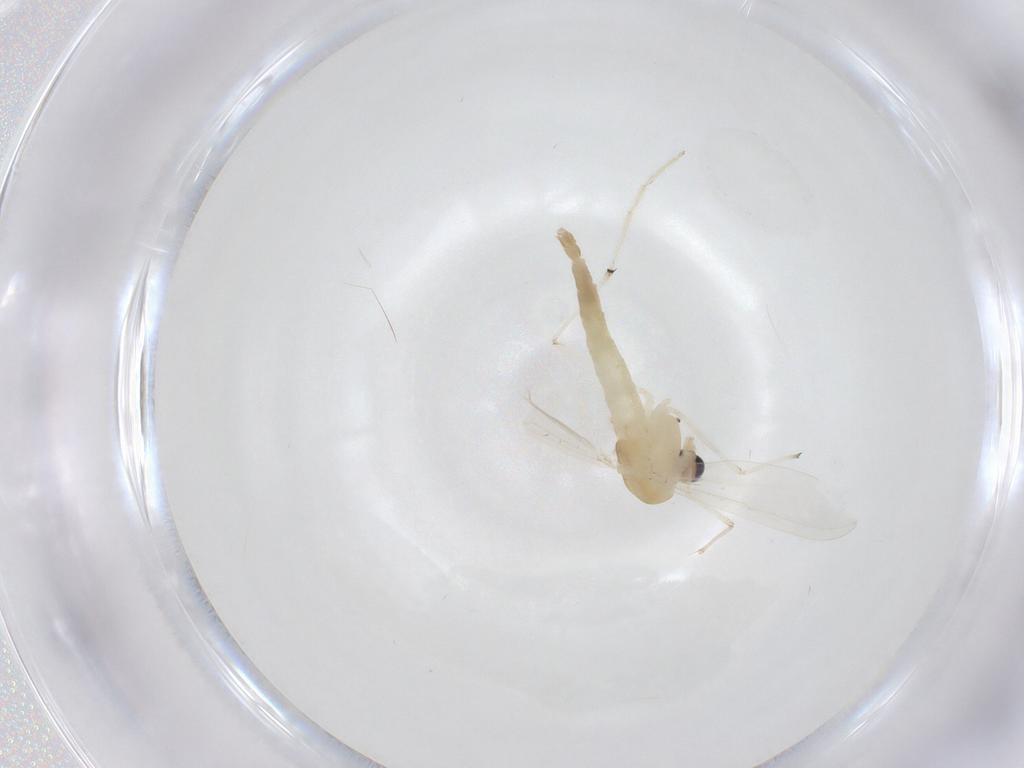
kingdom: Animalia
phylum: Arthropoda
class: Insecta
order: Diptera
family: Chironomidae
